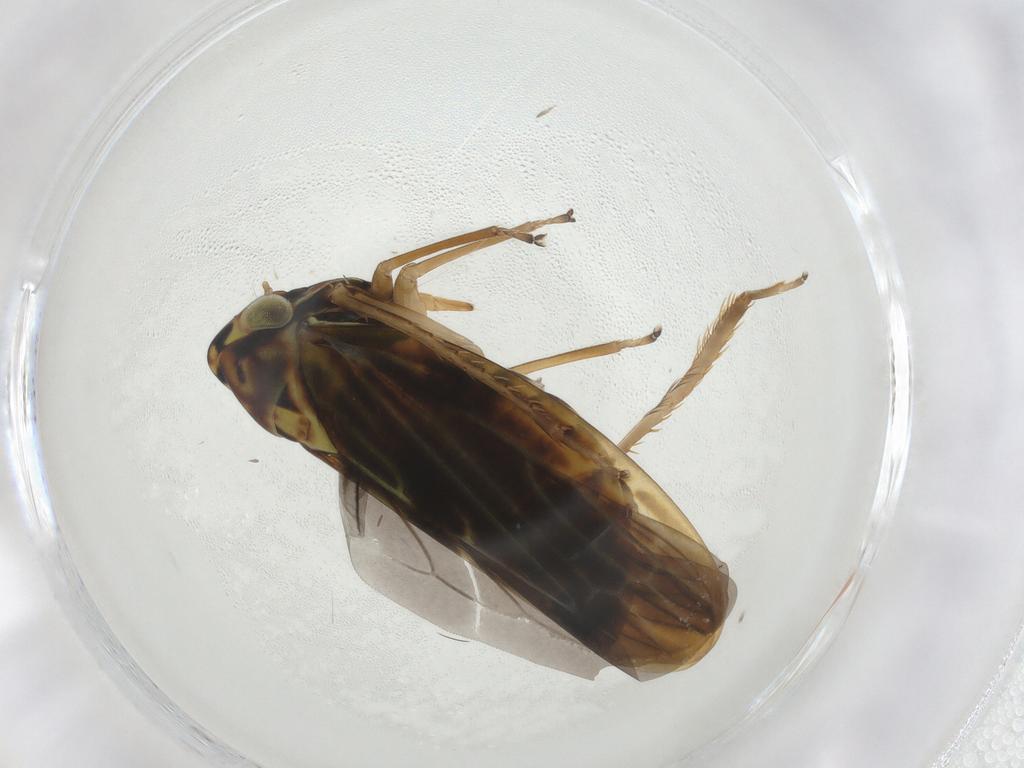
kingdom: Animalia
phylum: Arthropoda
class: Insecta
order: Hemiptera
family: Cicadellidae
